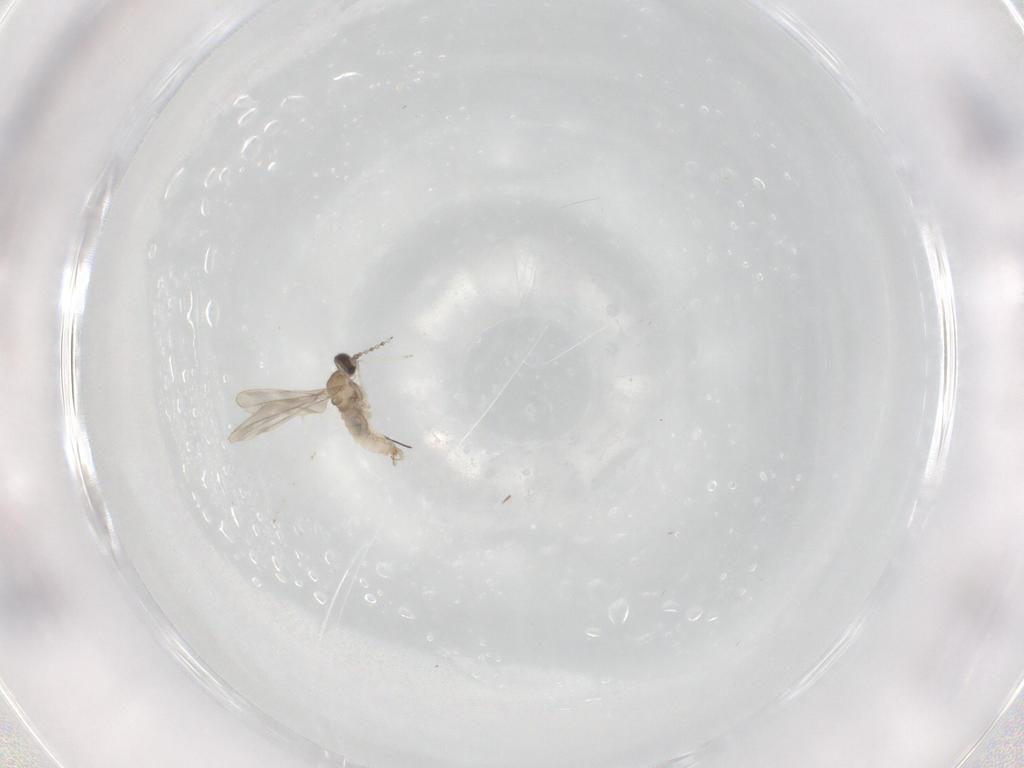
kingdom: Animalia
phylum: Arthropoda
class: Insecta
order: Diptera
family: Cecidomyiidae
